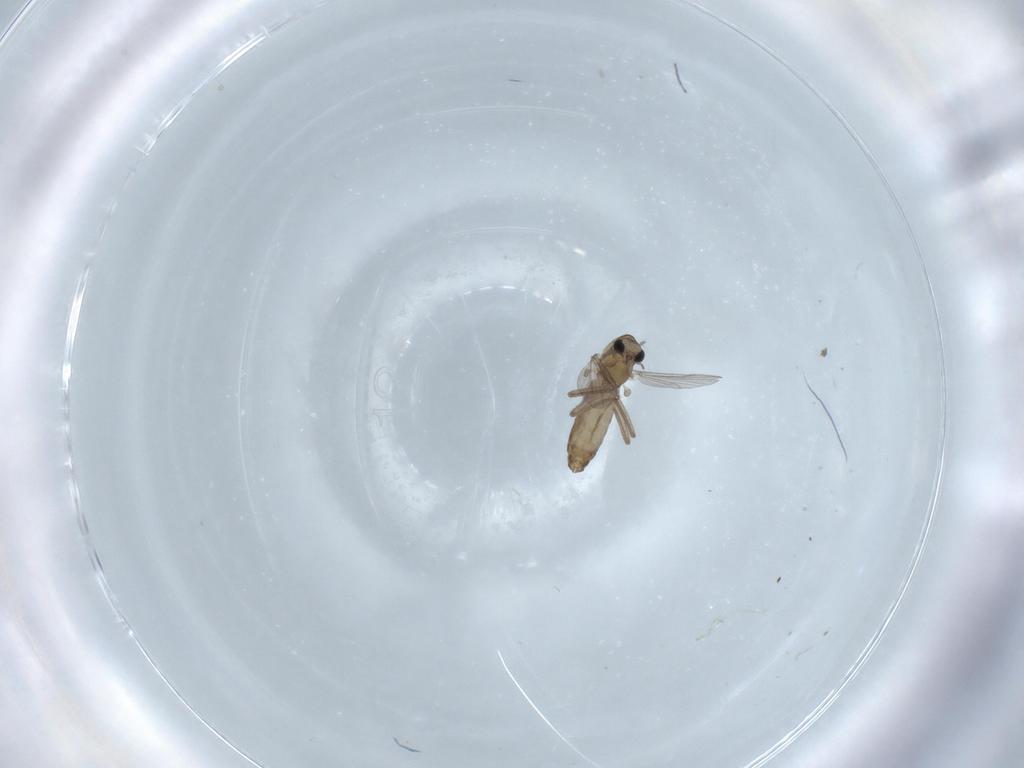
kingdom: Animalia
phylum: Arthropoda
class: Insecta
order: Diptera
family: Chironomidae
